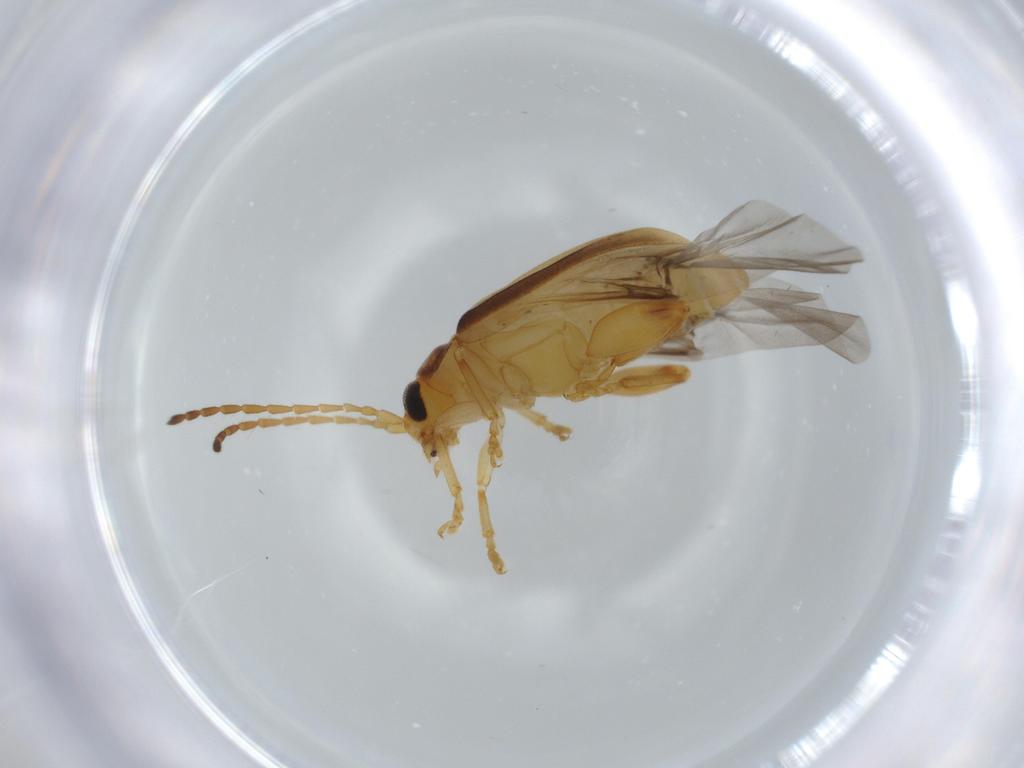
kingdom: Animalia
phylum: Arthropoda
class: Insecta
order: Coleoptera
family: Chrysomelidae
